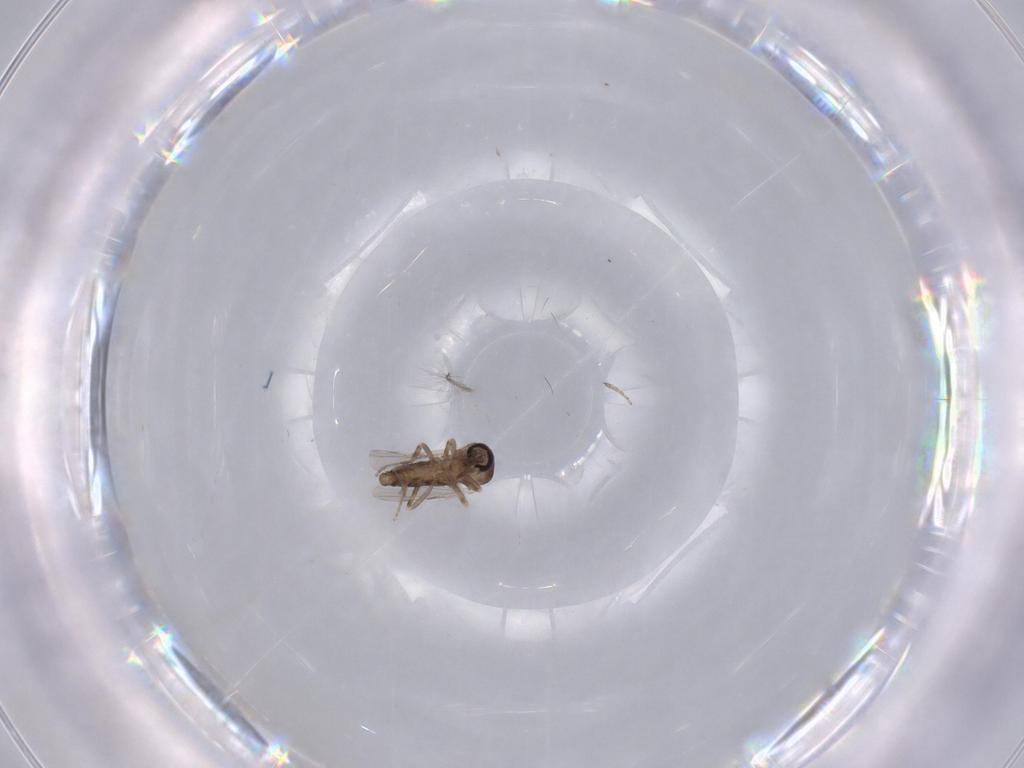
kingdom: Animalia
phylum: Arthropoda
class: Insecta
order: Diptera
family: Ceratopogonidae
